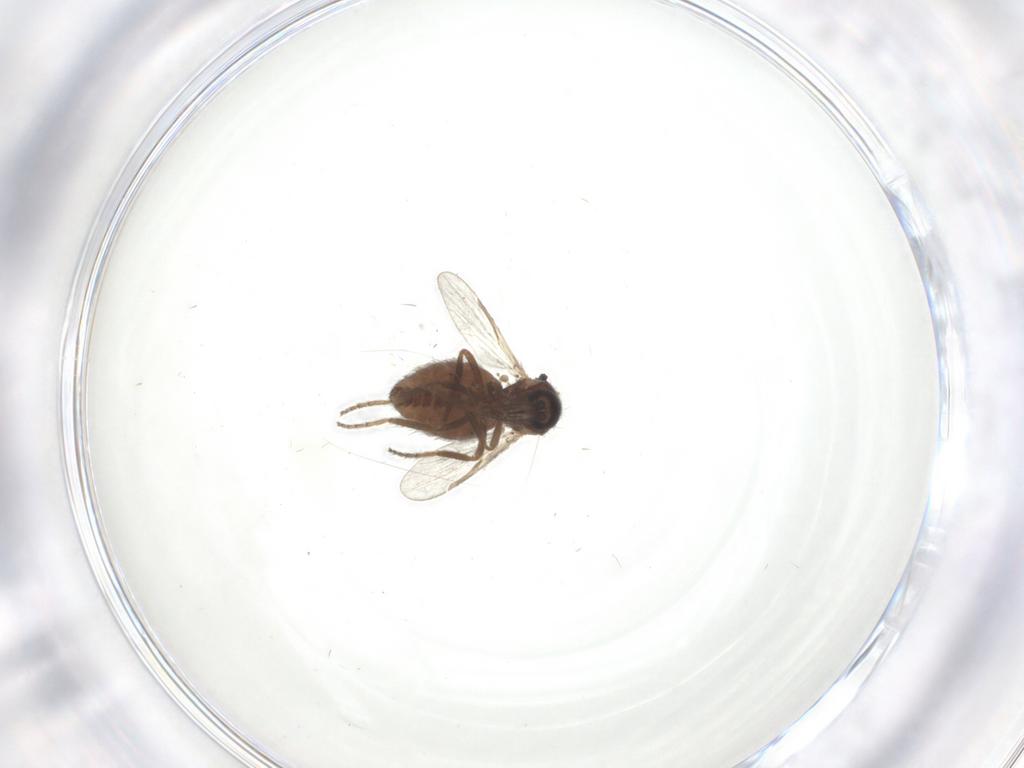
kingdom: Animalia
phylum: Arthropoda
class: Insecta
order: Diptera
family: Ceratopogonidae
